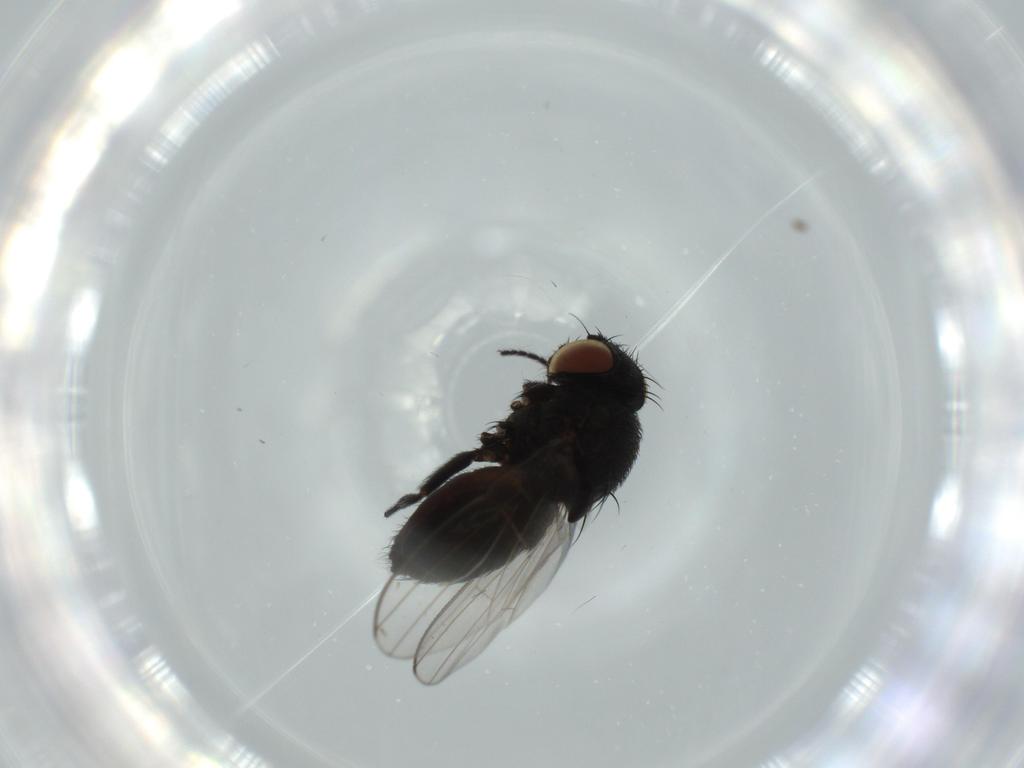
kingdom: Animalia
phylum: Arthropoda
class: Insecta
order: Diptera
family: Milichiidae
